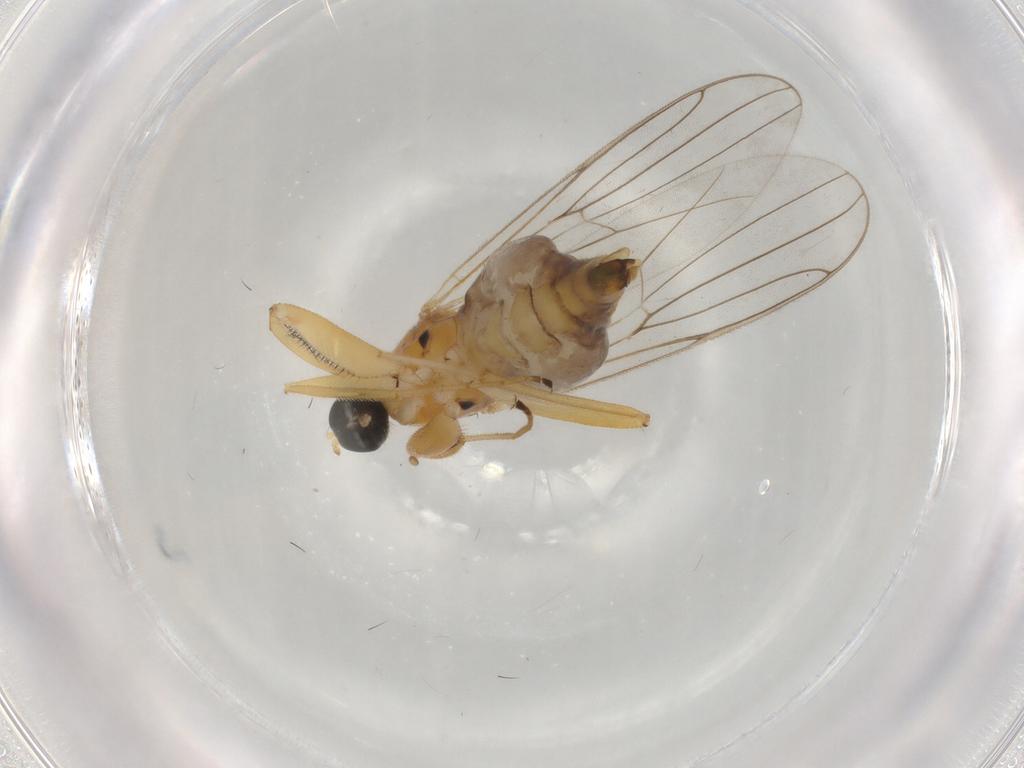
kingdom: Animalia
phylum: Arthropoda
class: Insecta
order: Diptera
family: Hybotidae
